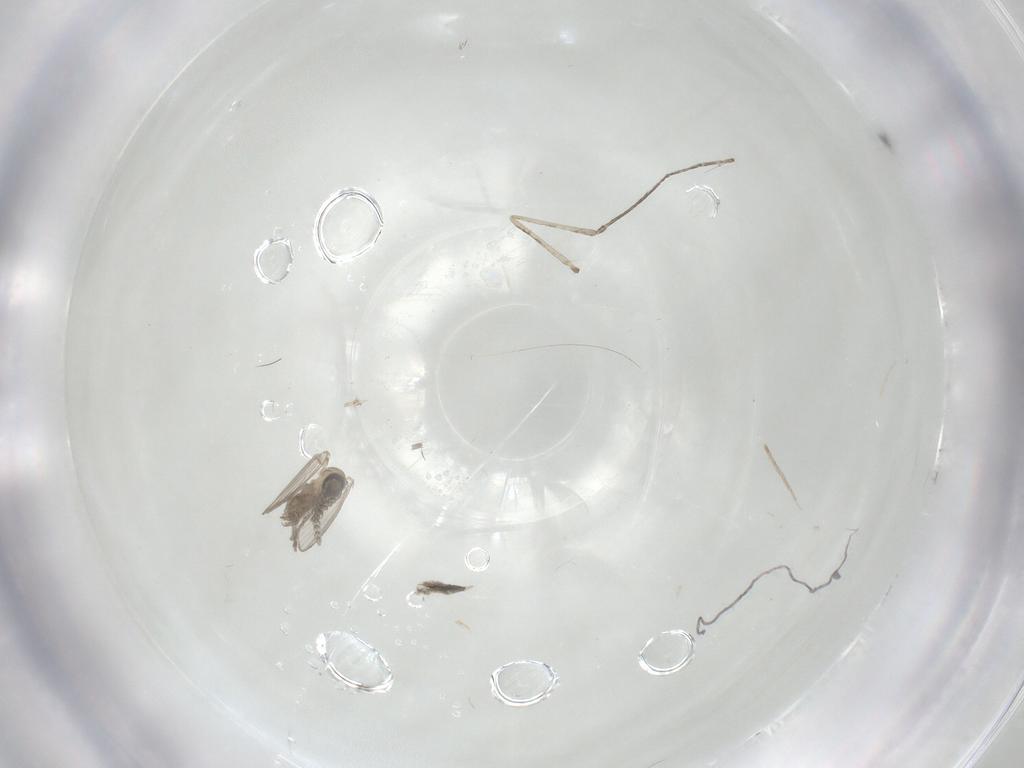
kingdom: Animalia
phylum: Arthropoda
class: Insecta
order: Diptera
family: Psychodidae
